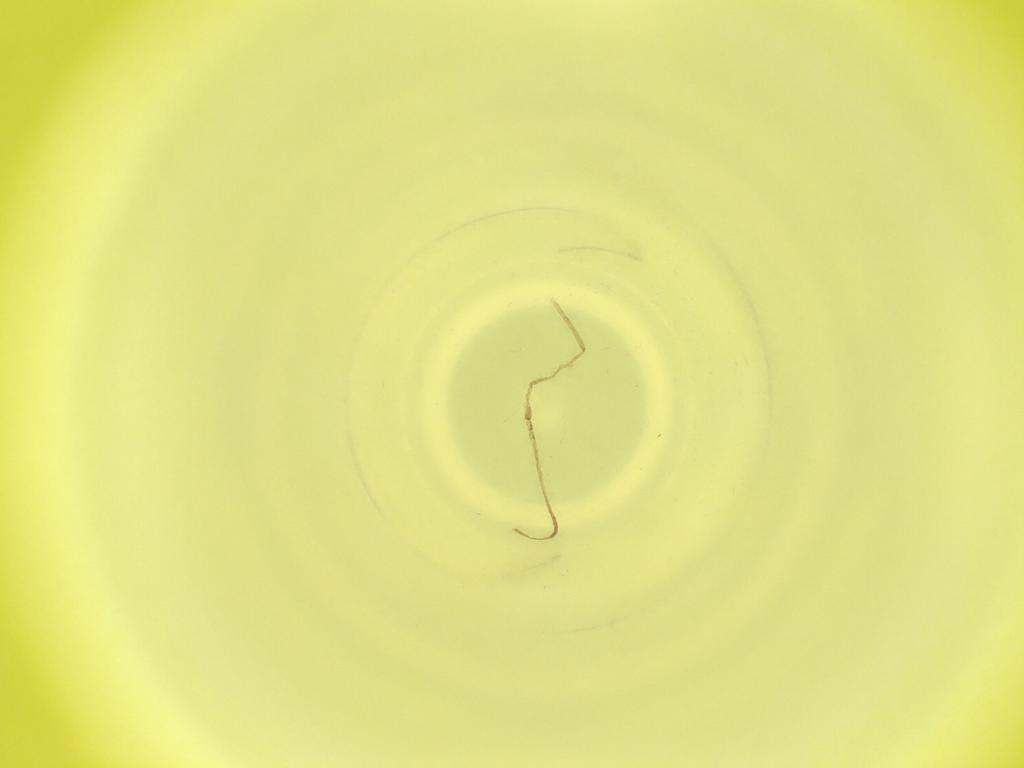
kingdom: Animalia
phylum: Arthropoda
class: Insecta
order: Diptera
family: Cecidomyiidae
